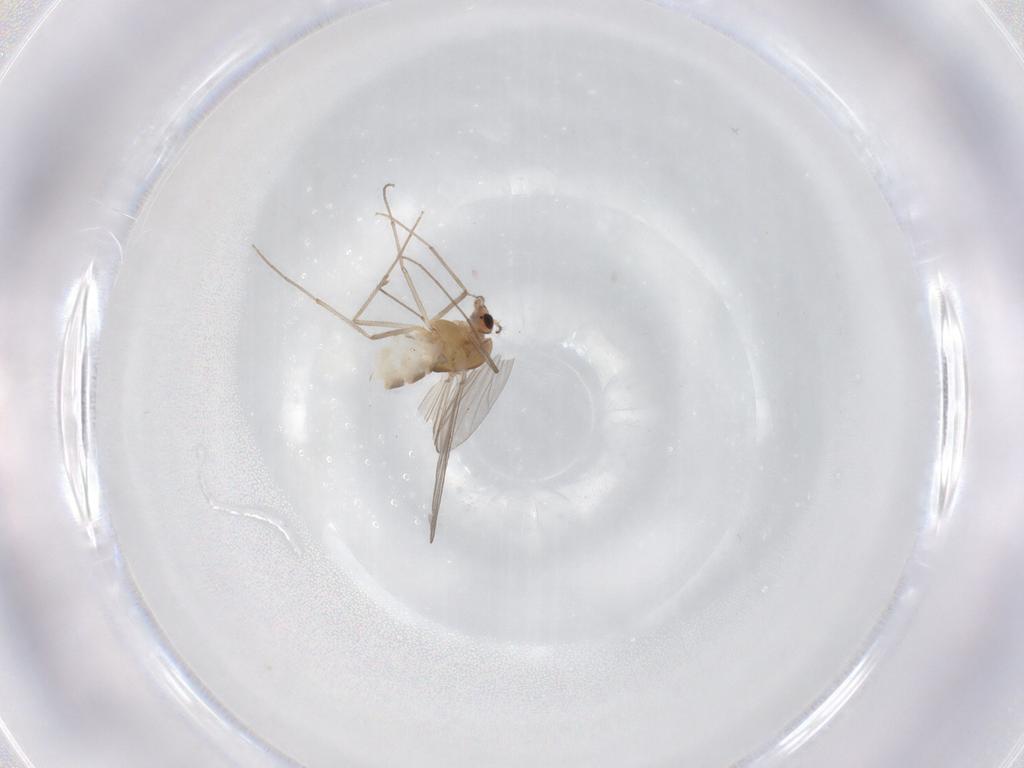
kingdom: Animalia
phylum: Arthropoda
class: Insecta
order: Diptera
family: Chironomidae
